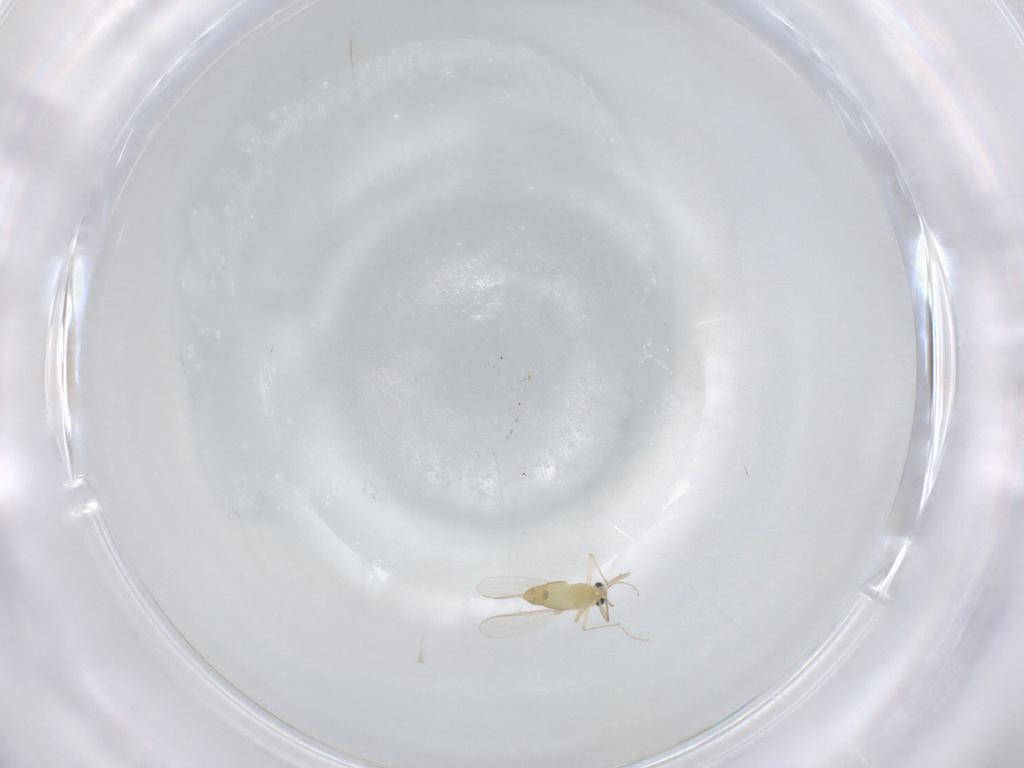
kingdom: Animalia
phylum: Arthropoda
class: Insecta
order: Diptera
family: Chironomidae
